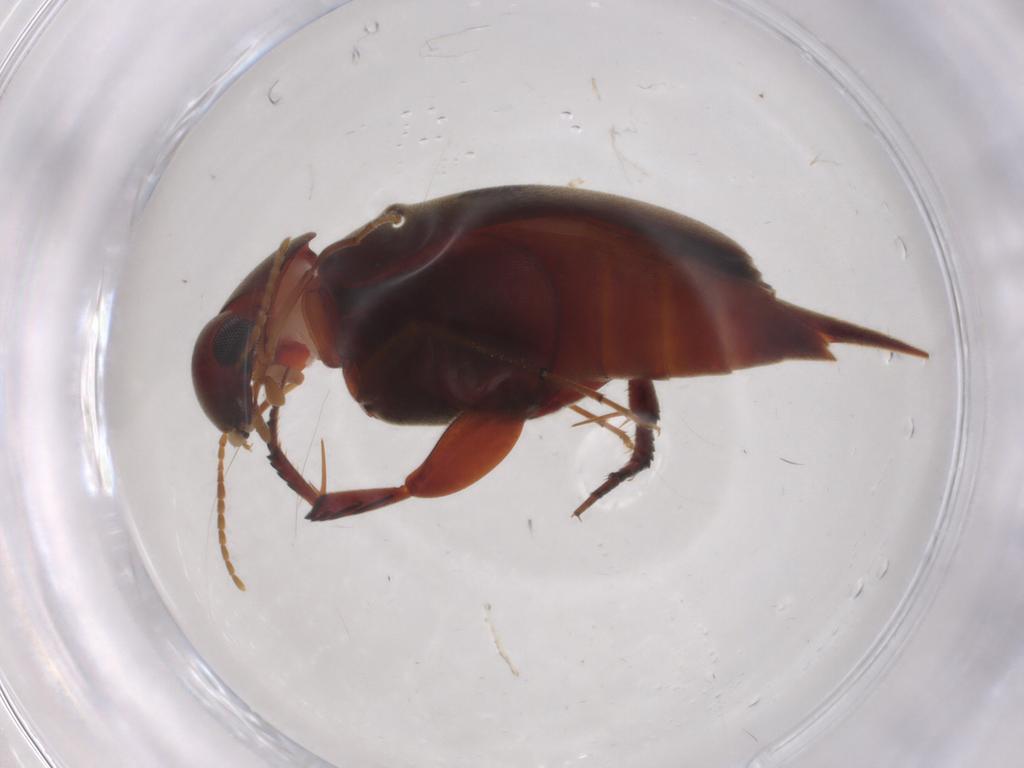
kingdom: Animalia
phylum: Arthropoda
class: Insecta
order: Coleoptera
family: Mordellidae
